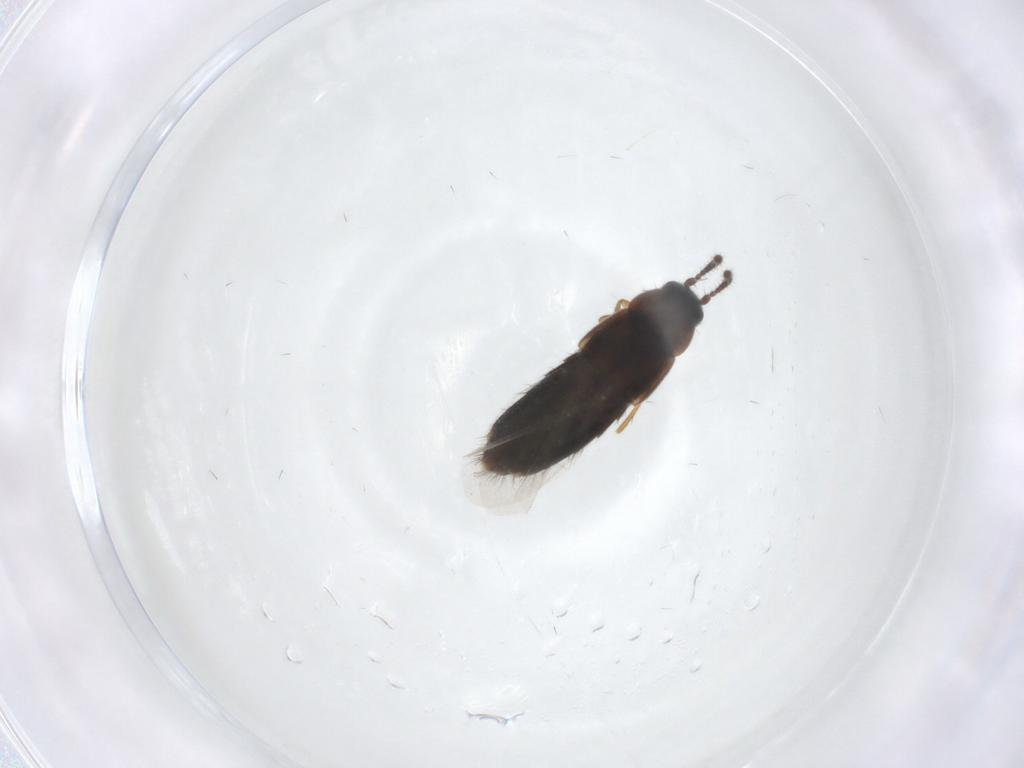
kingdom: Animalia
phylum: Arthropoda
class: Insecta
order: Coleoptera
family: Staphylinidae
